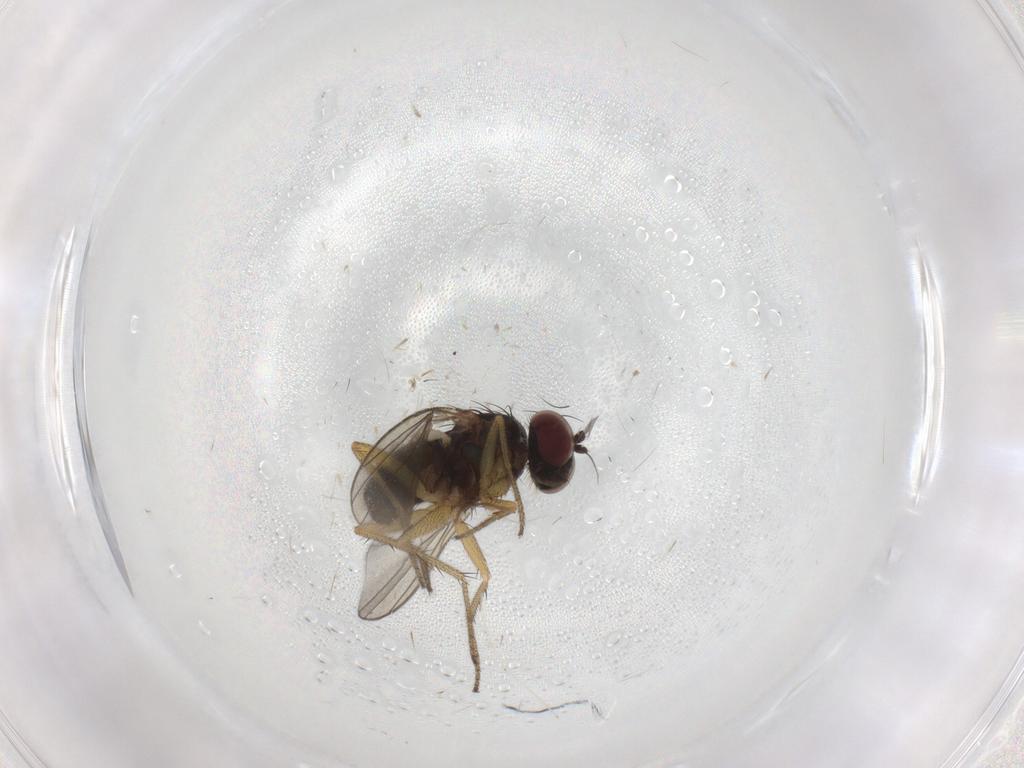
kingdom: Animalia
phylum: Arthropoda
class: Insecta
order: Diptera
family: Cecidomyiidae
